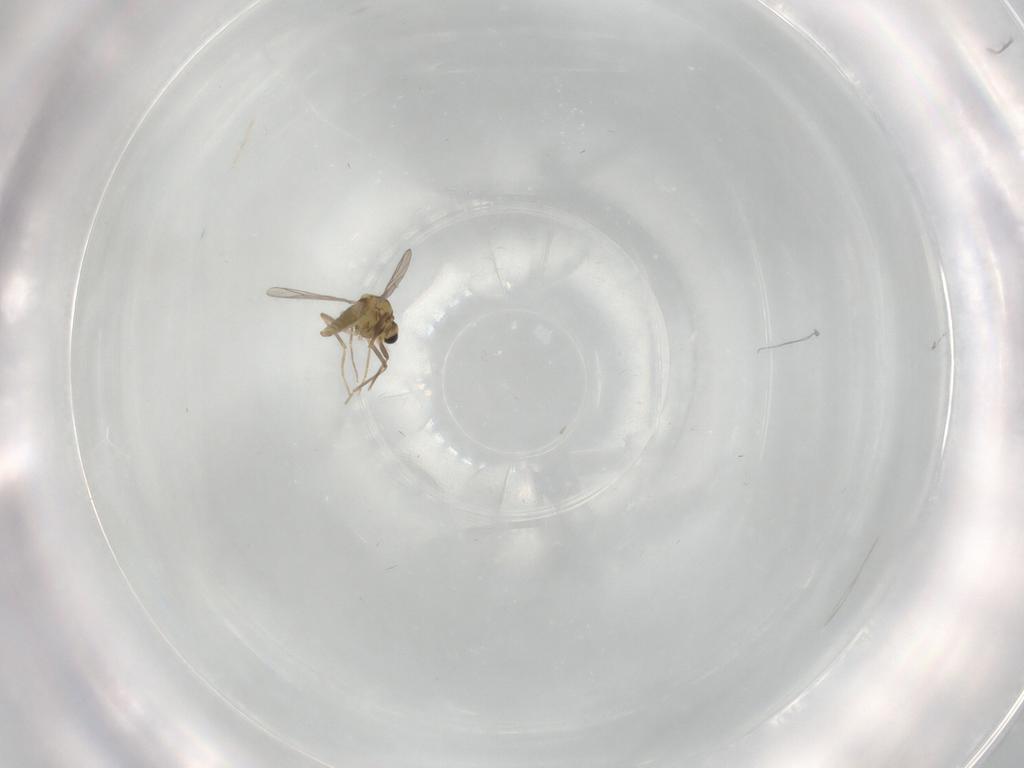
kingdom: Animalia
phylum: Arthropoda
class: Insecta
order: Diptera
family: Chironomidae
